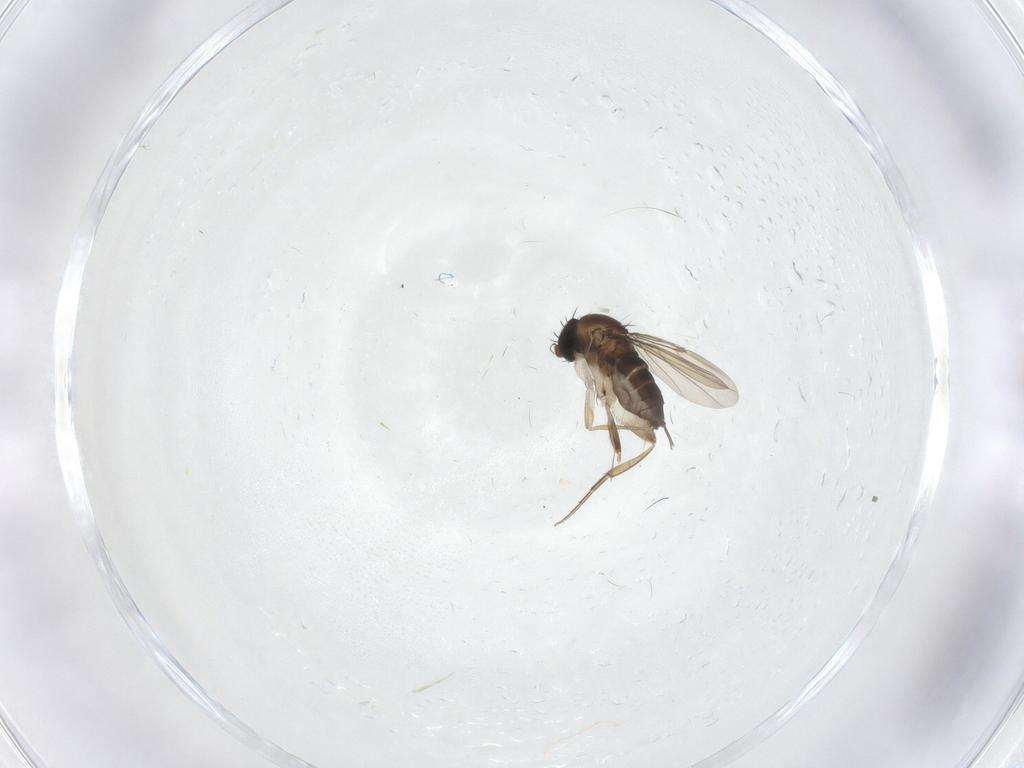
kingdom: Animalia
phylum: Arthropoda
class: Insecta
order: Diptera
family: Phoridae
